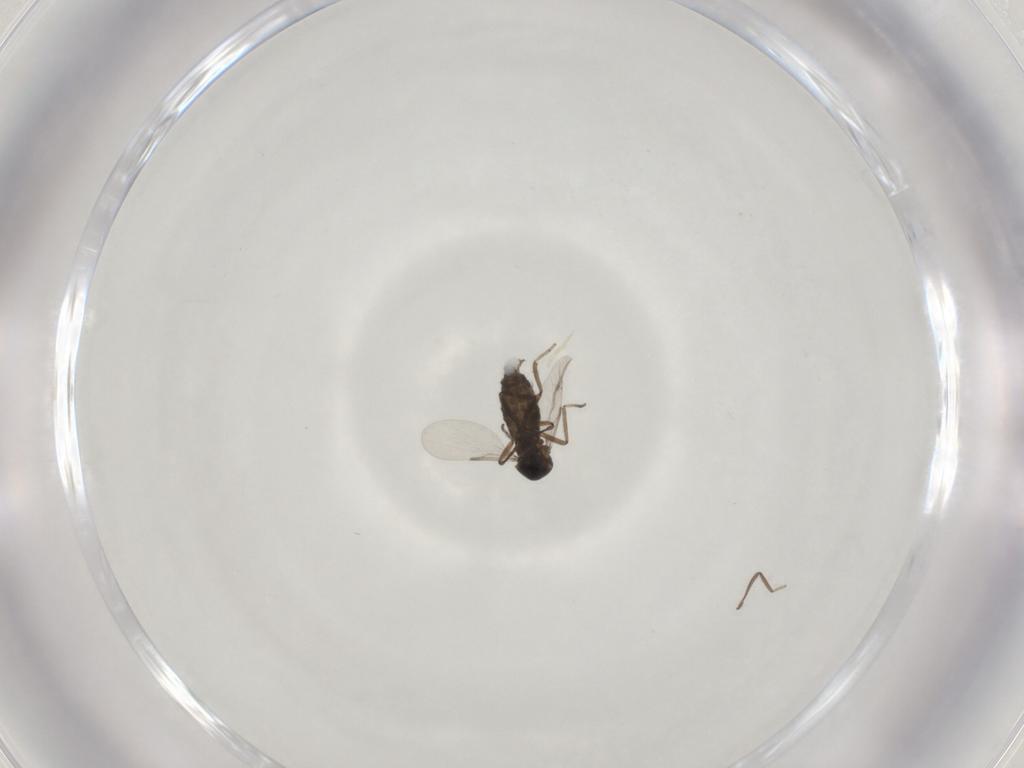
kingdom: Animalia
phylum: Arthropoda
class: Insecta
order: Diptera
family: Ceratopogonidae
